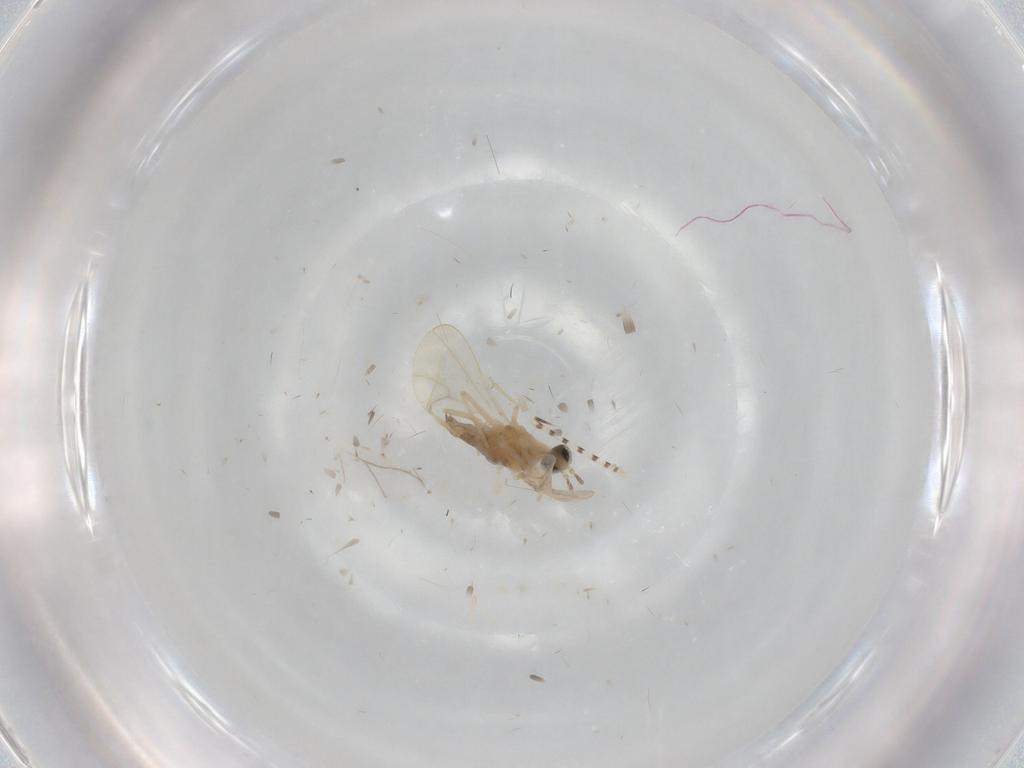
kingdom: Animalia
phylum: Arthropoda
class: Insecta
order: Diptera
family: Cecidomyiidae
